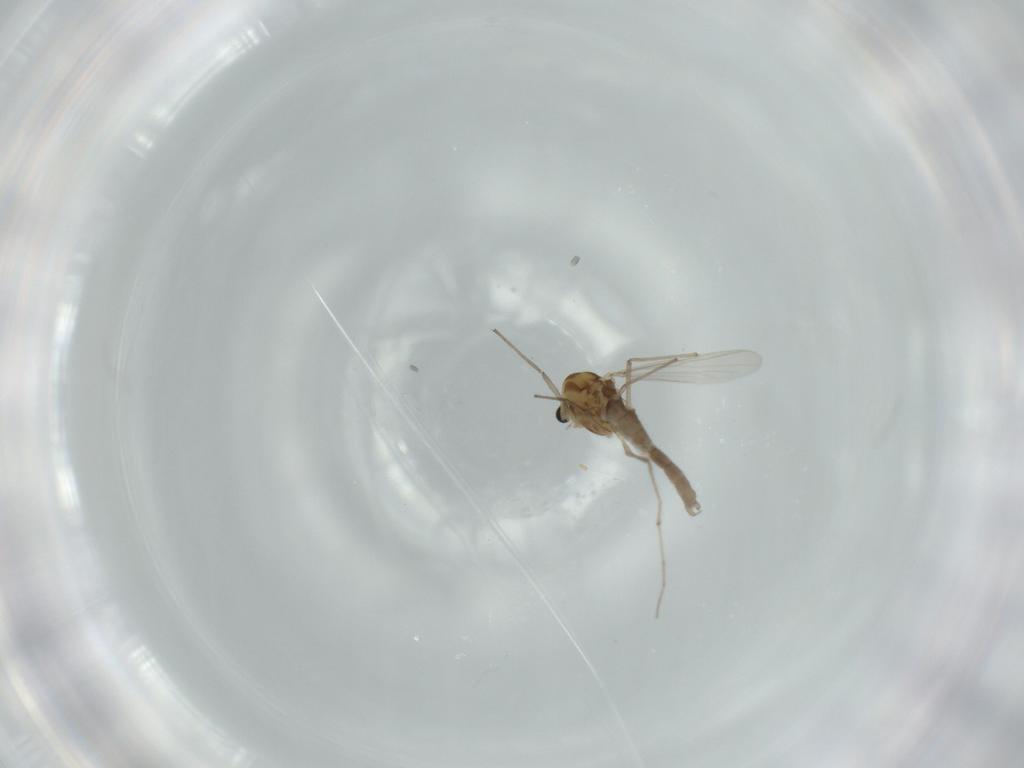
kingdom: Animalia
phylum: Arthropoda
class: Insecta
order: Diptera
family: Chironomidae
